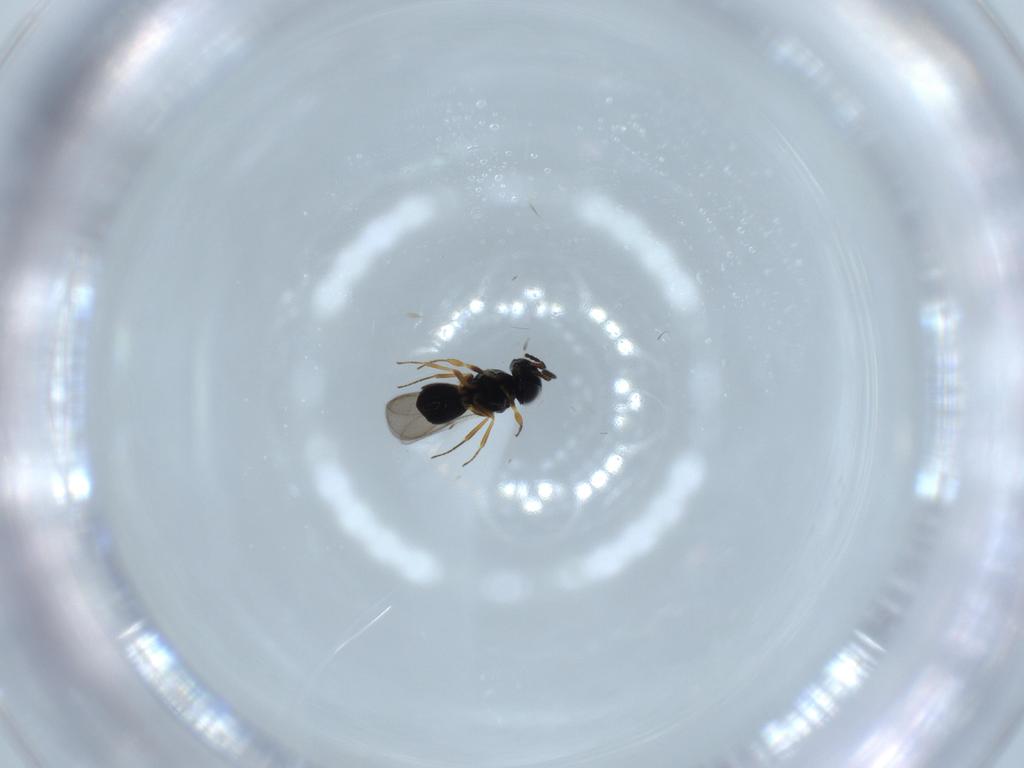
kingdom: Animalia
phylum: Arthropoda
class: Insecta
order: Hymenoptera
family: Scelionidae
